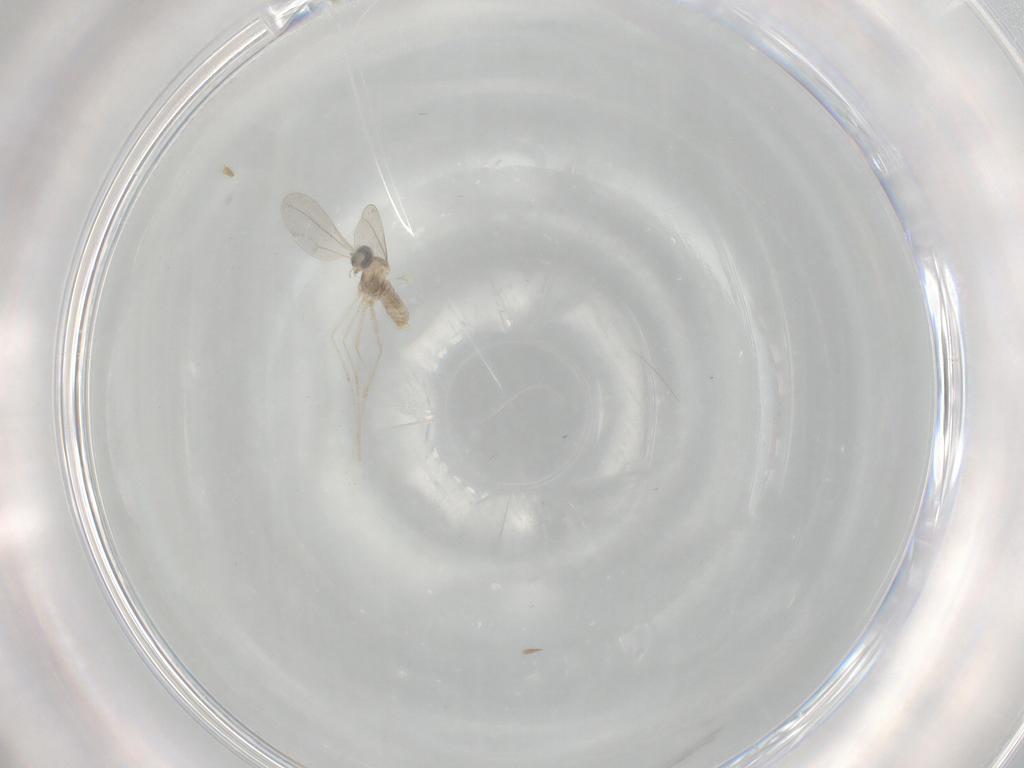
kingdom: Animalia
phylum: Arthropoda
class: Insecta
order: Diptera
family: Cecidomyiidae
